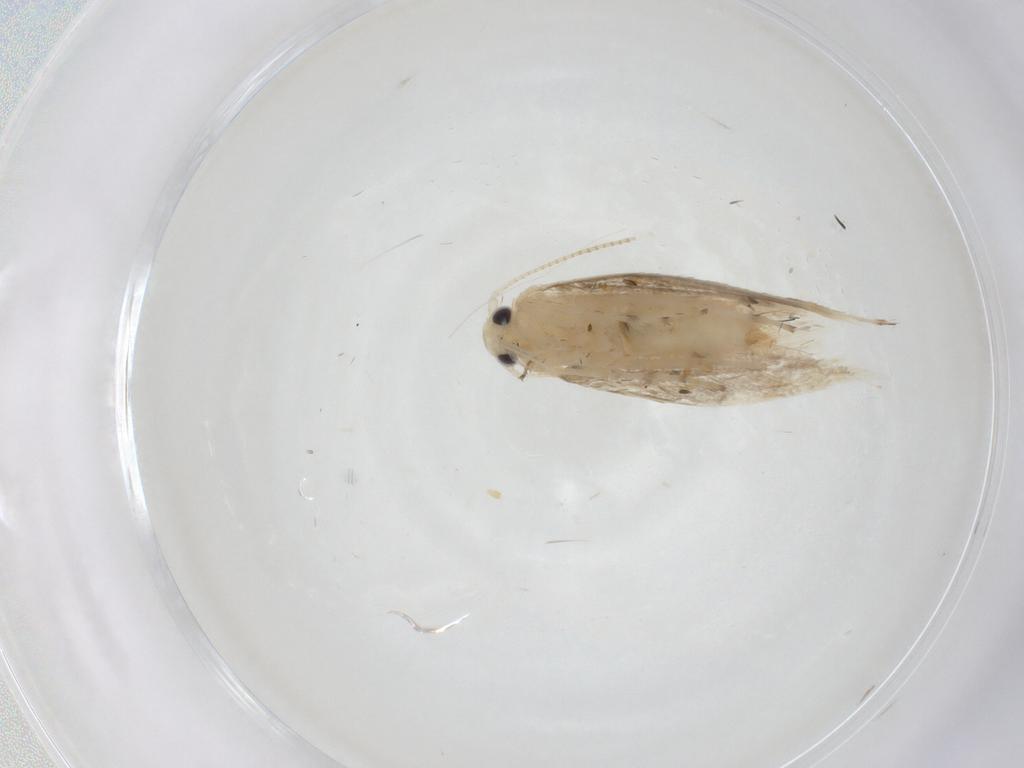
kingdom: Animalia
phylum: Arthropoda
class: Insecta
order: Lepidoptera
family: Gracillariidae
